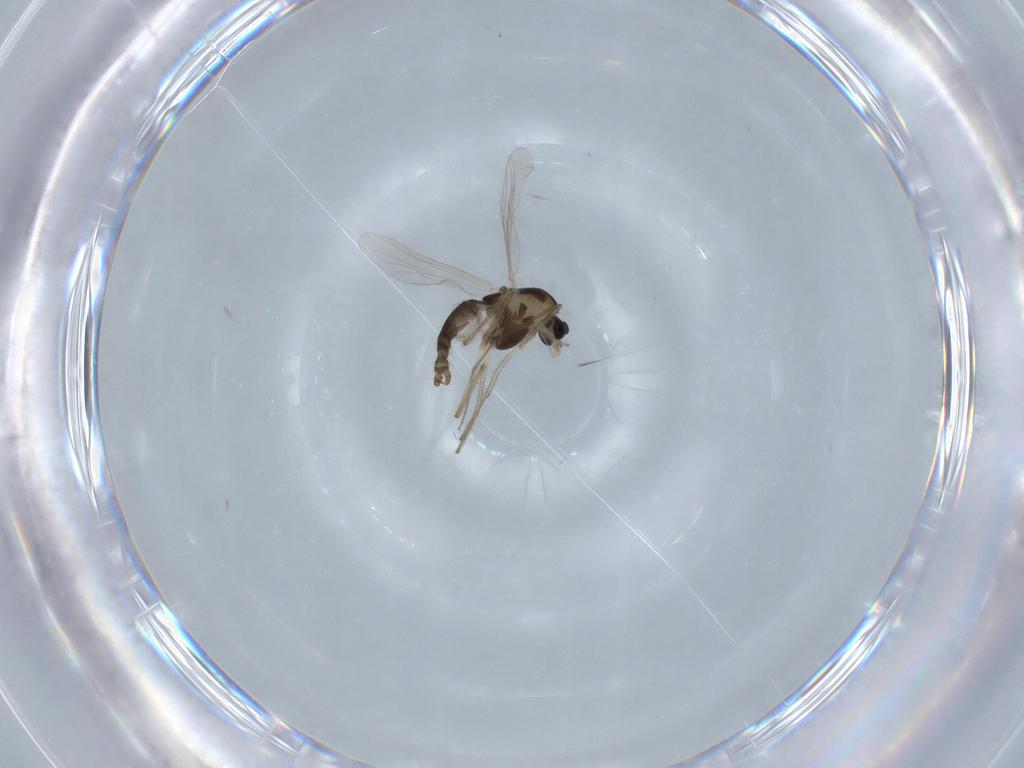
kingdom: Animalia
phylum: Arthropoda
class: Insecta
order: Diptera
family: Chironomidae
